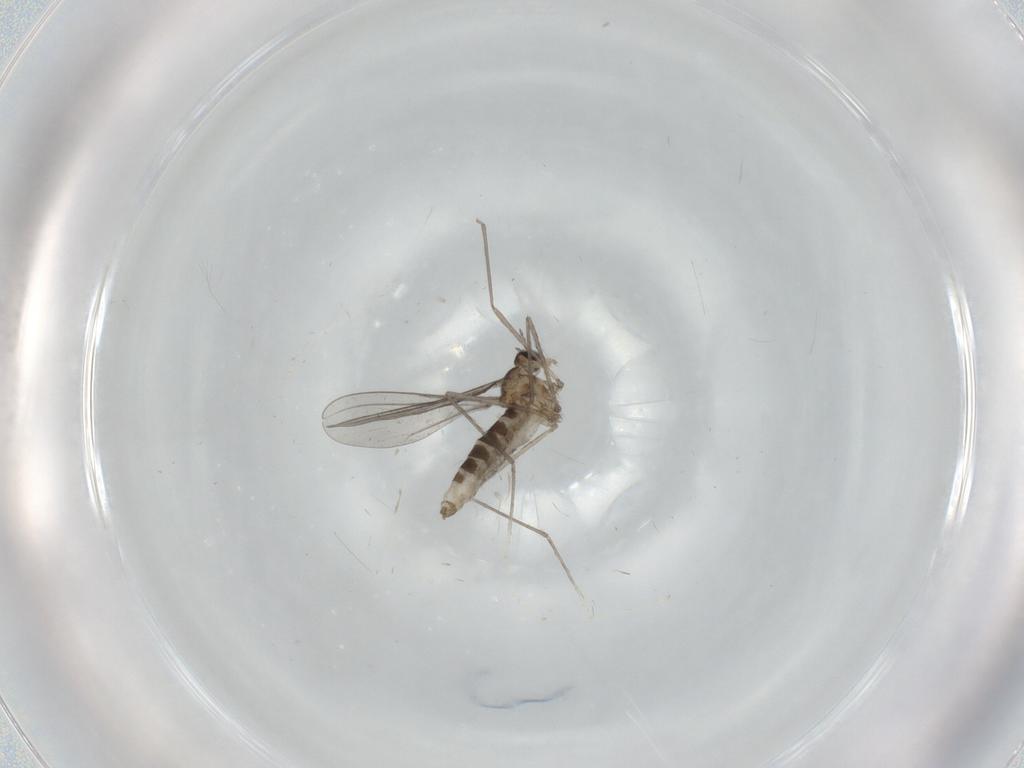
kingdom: Animalia
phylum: Arthropoda
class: Insecta
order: Diptera
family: Cecidomyiidae
